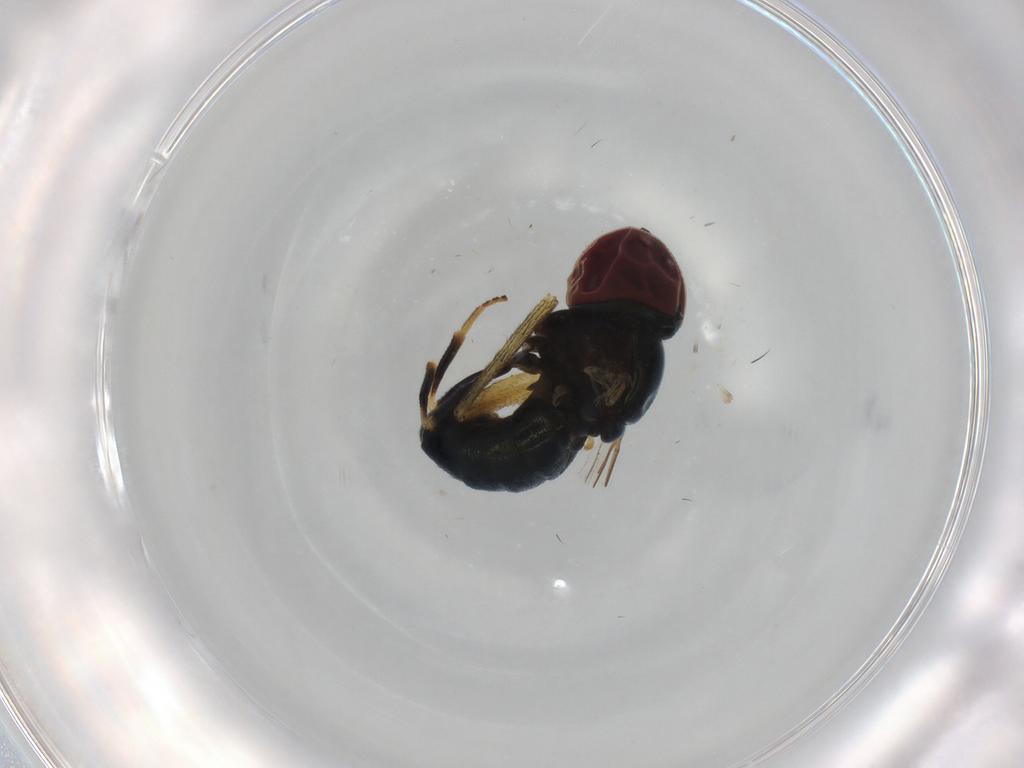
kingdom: Animalia
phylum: Arthropoda
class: Insecta
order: Diptera
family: Pipunculidae
